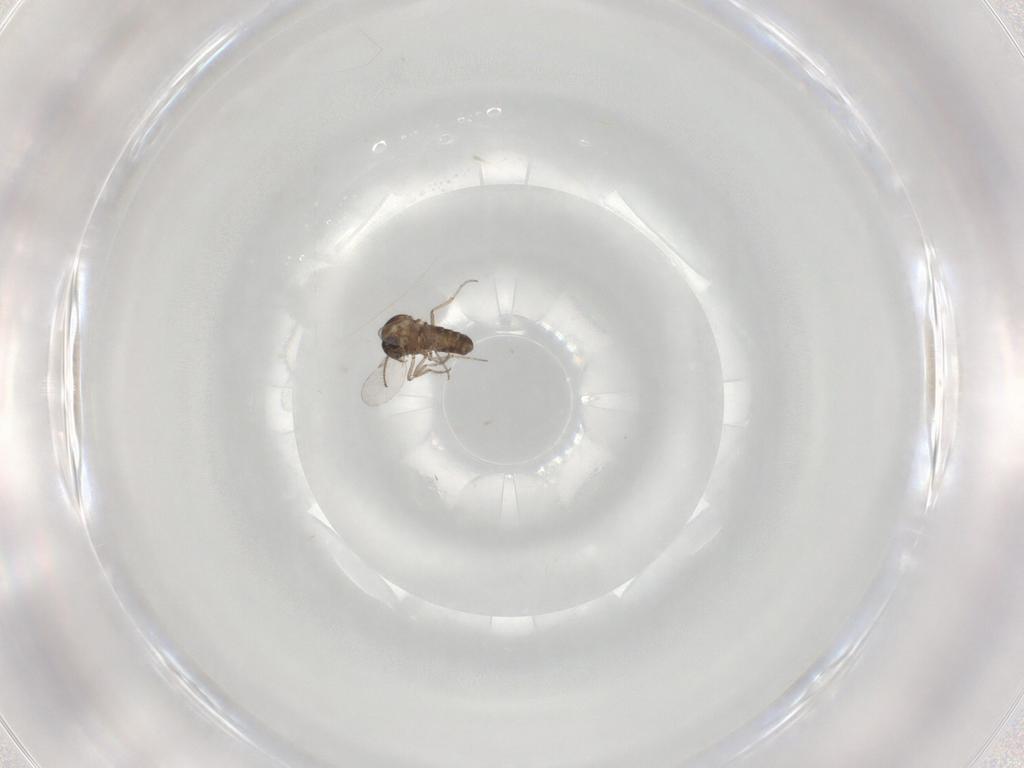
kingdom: Animalia
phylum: Arthropoda
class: Insecta
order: Diptera
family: Ceratopogonidae
